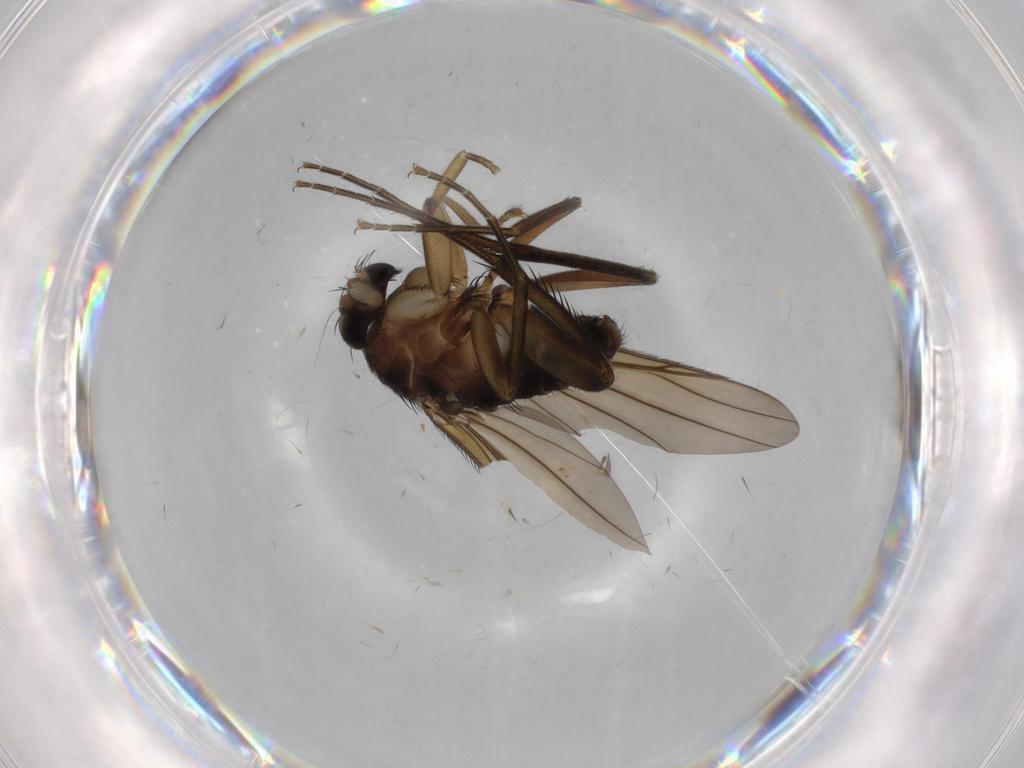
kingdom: Animalia
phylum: Arthropoda
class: Insecta
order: Diptera
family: Phoridae
